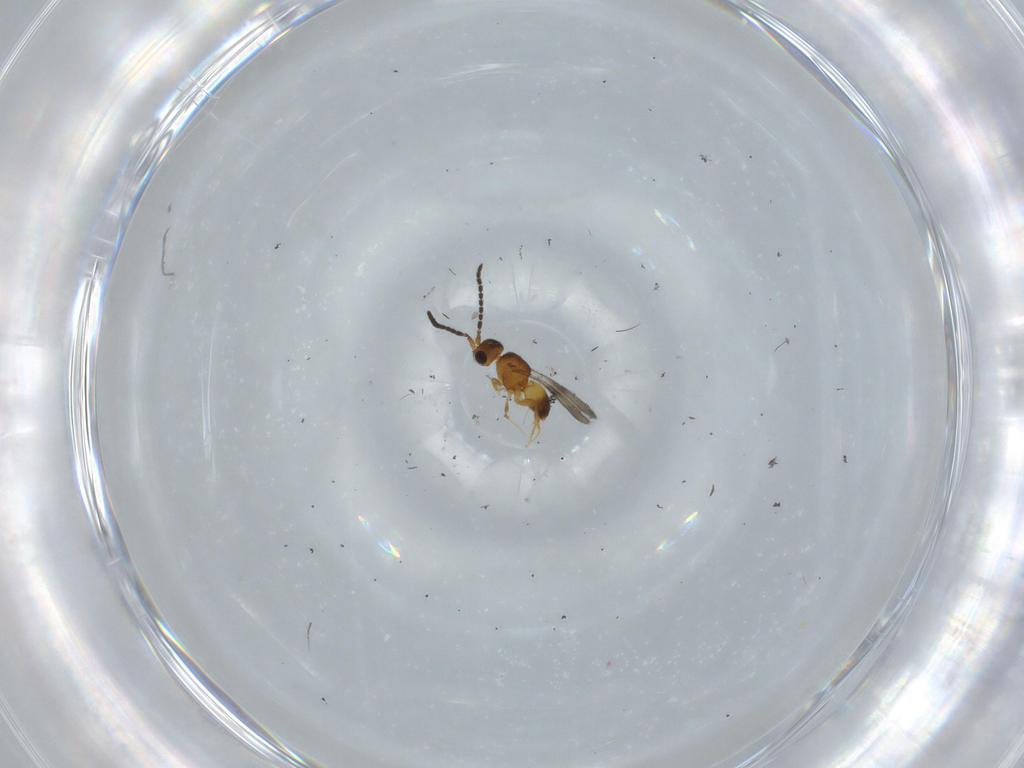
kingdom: Animalia
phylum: Arthropoda
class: Insecta
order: Hymenoptera
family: Ceraphronidae
